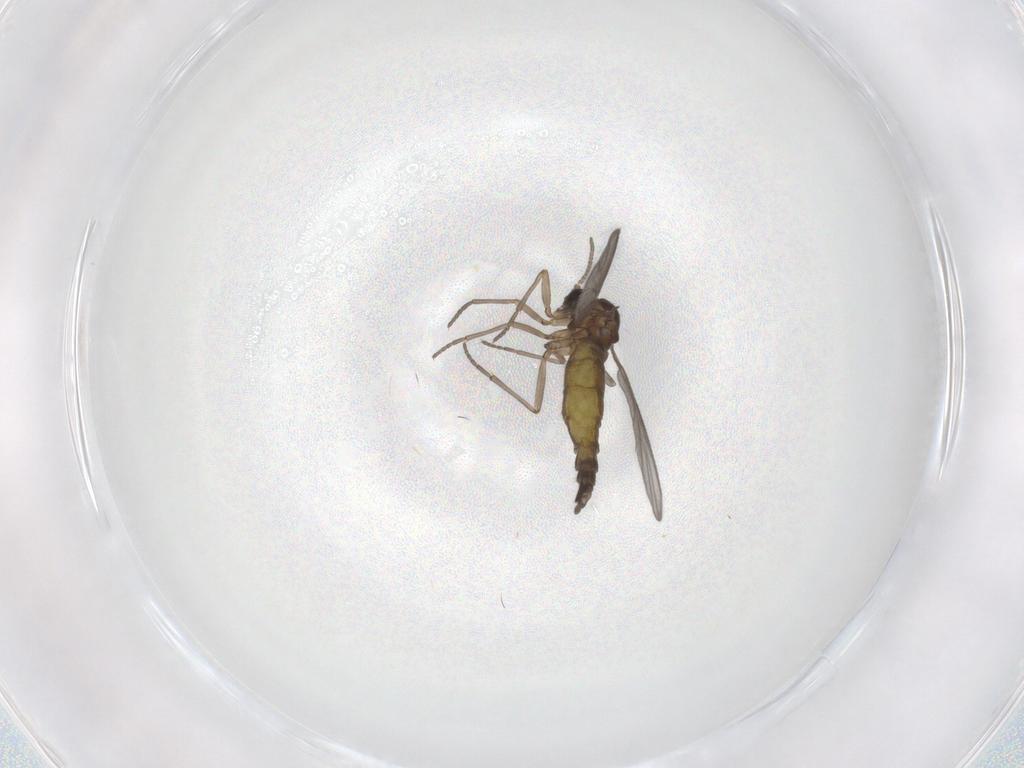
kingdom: Animalia
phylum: Arthropoda
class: Insecta
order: Diptera
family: Sciaridae
